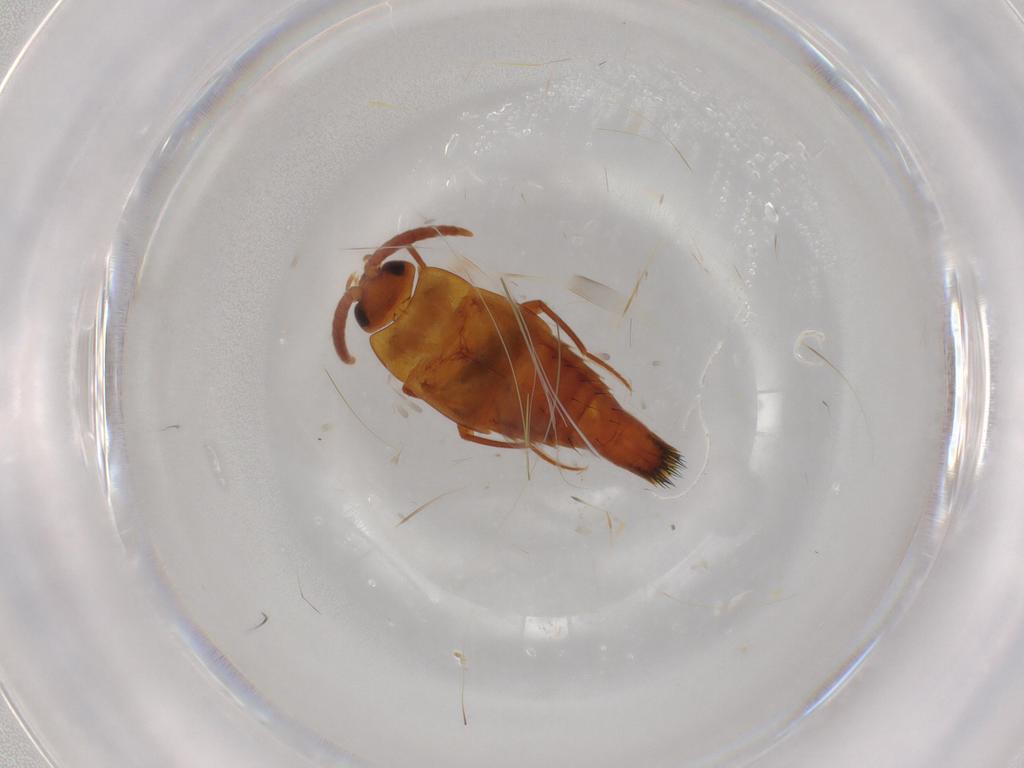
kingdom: Animalia
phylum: Arthropoda
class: Insecta
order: Coleoptera
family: Staphylinidae
